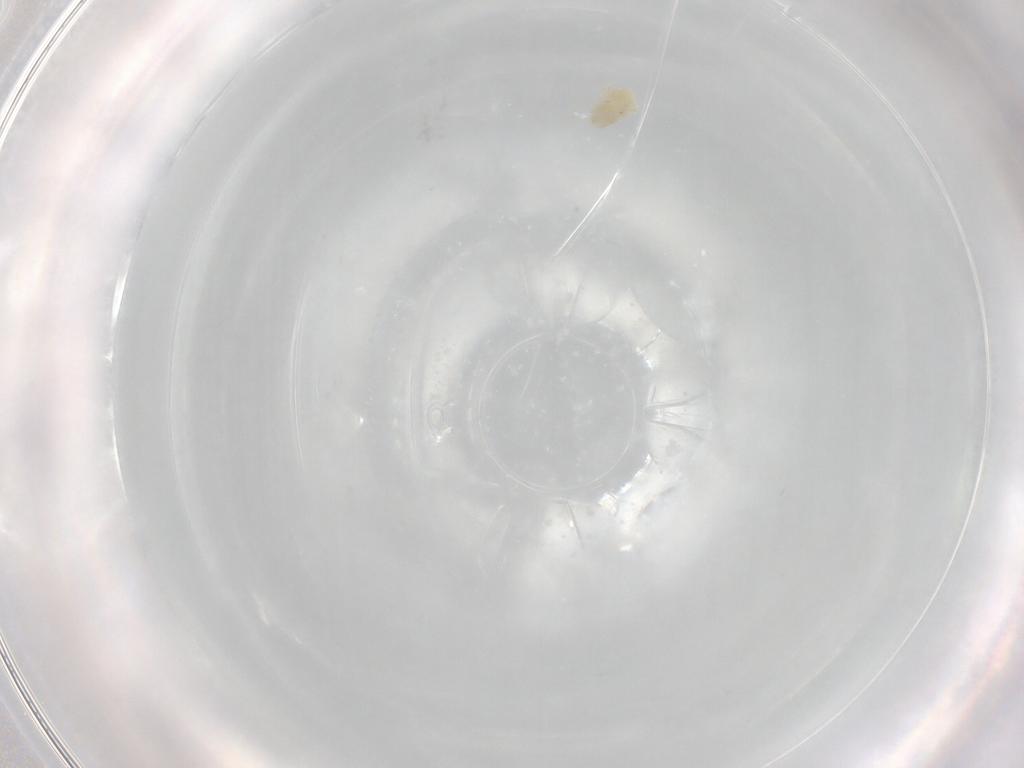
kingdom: Animalia
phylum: Arthropoda
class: Arachnida
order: Trombidiformes
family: Eupodidae
